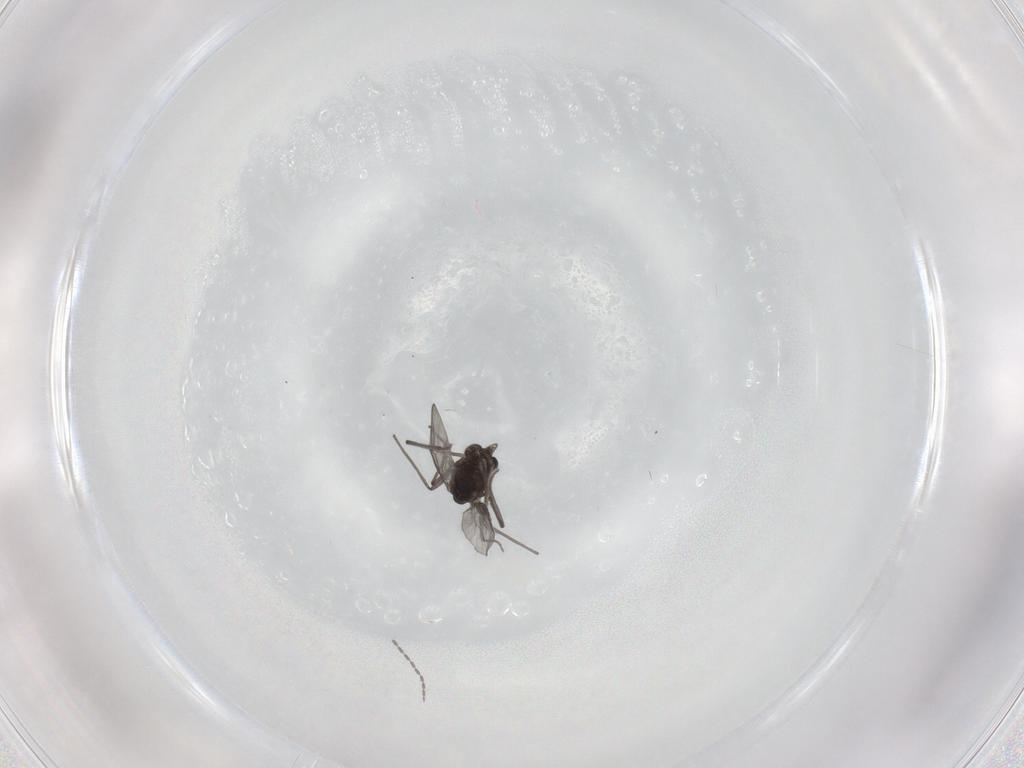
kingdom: Animalia
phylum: Arthropoda
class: Insecta
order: Diptera
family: Chironomidae
